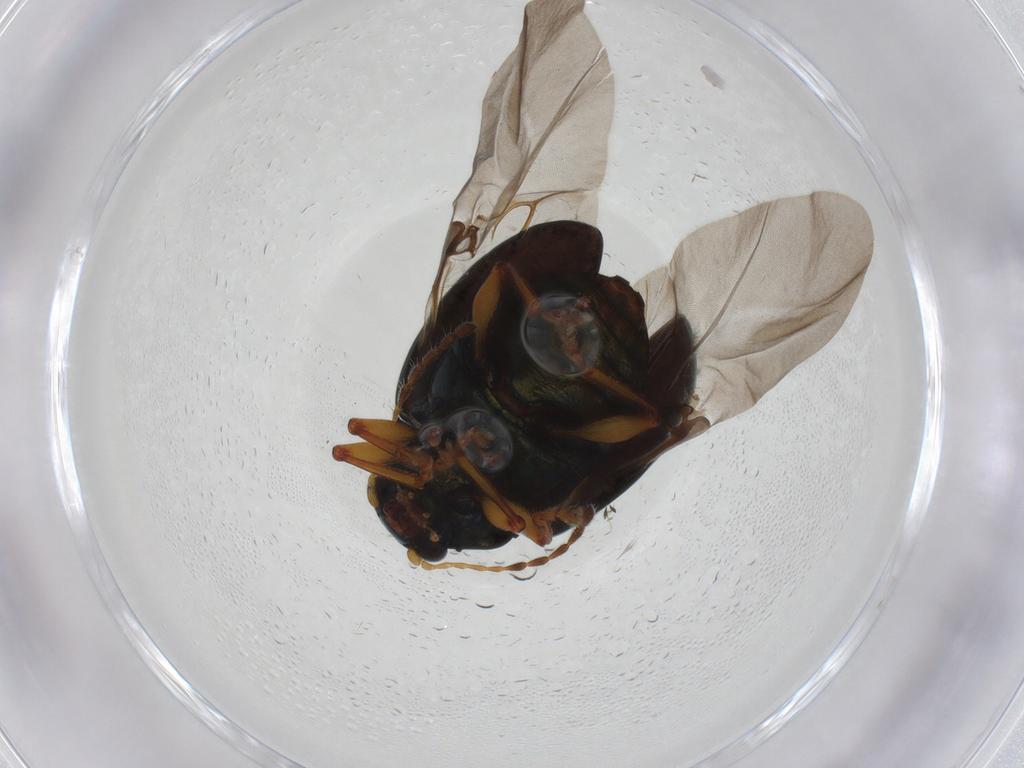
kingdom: Animalia
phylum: Arthropoda
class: Insecta
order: Coleoptera
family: Chrysomelidae
